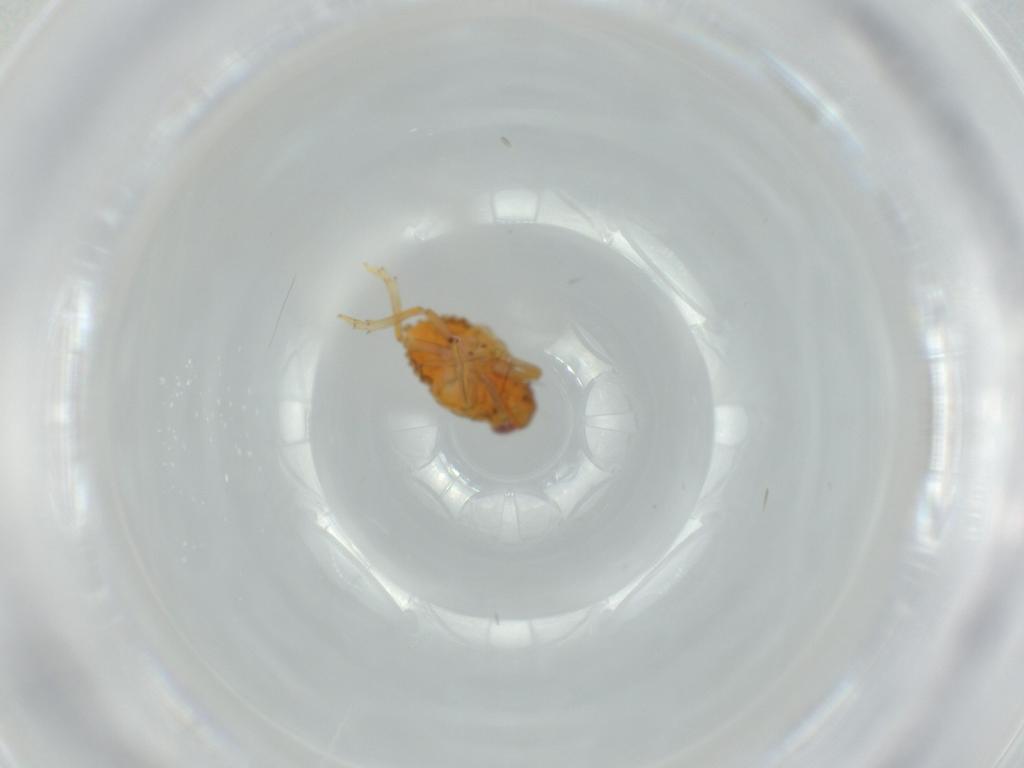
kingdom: Animalia
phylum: Arthropoda
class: Insecta
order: Hemiptera
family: Issidae
